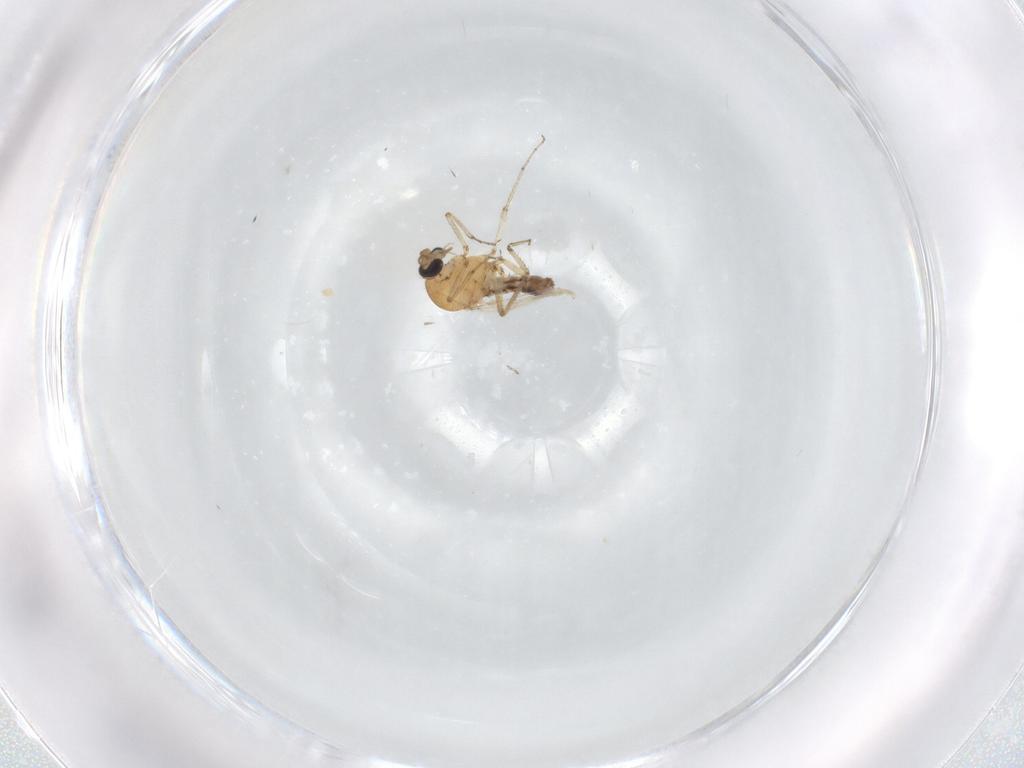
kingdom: Animalia
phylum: Arthropoda
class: Insecta
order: Diptera
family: Ceratopogonidae
